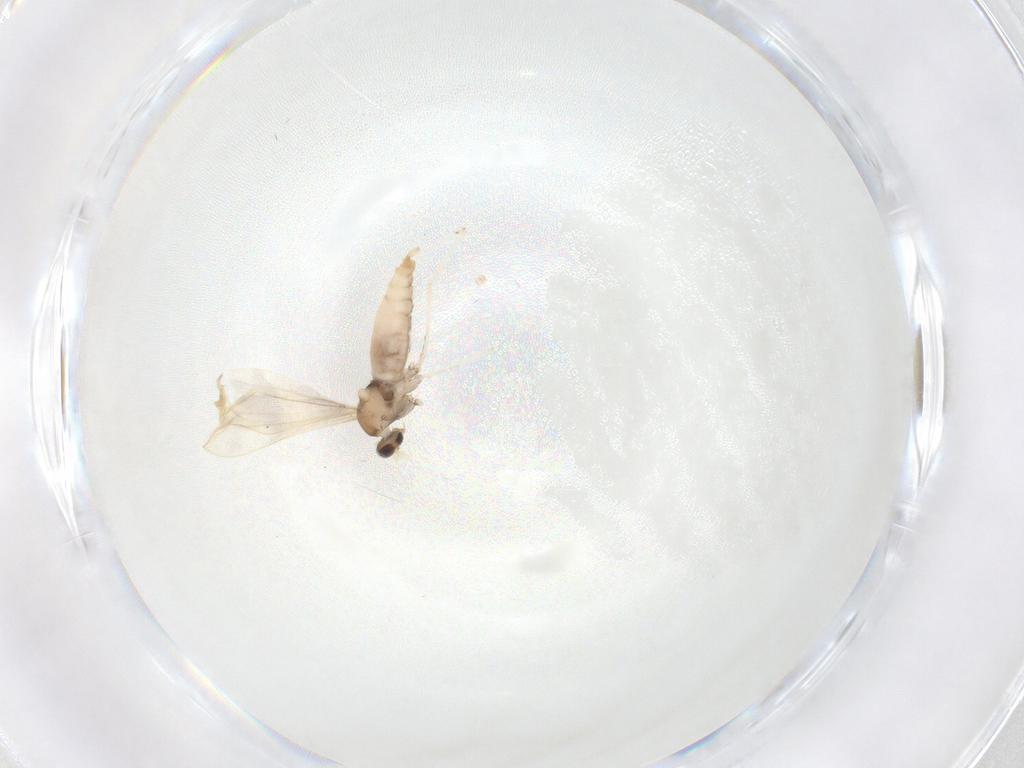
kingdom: Animalia
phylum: Arthropoda
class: Insecta
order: Diptera
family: Cecidomyiidae
